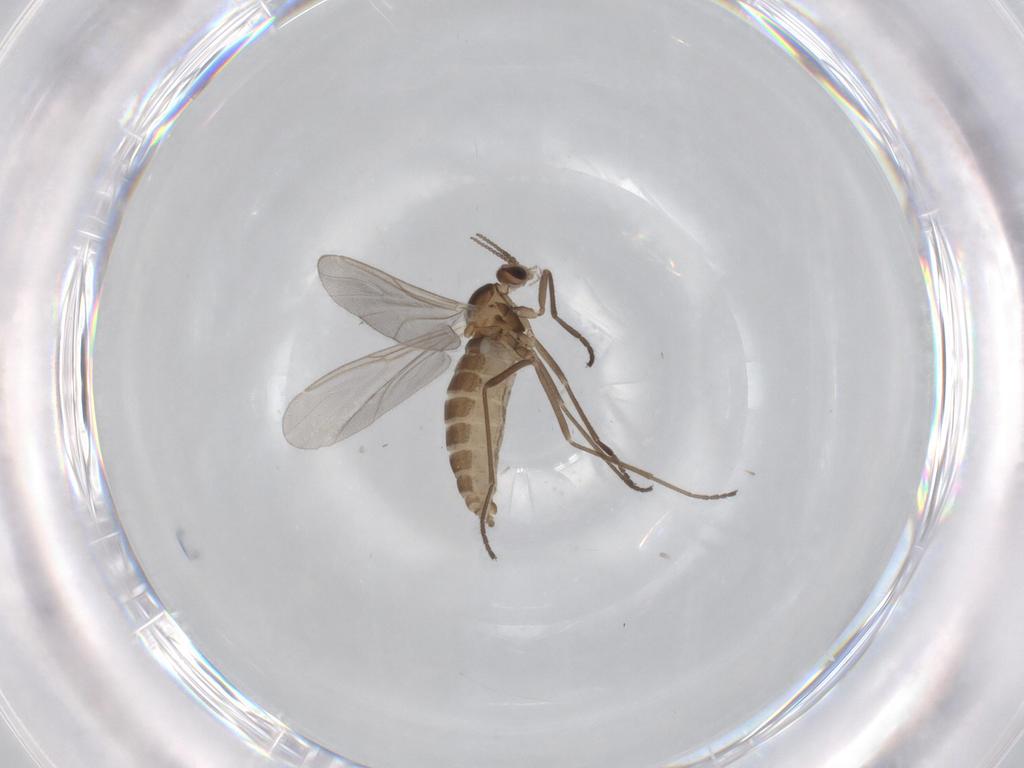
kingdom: Animalia
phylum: Arthropoda
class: Insecta
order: Diptera
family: Cecidomyiidae
